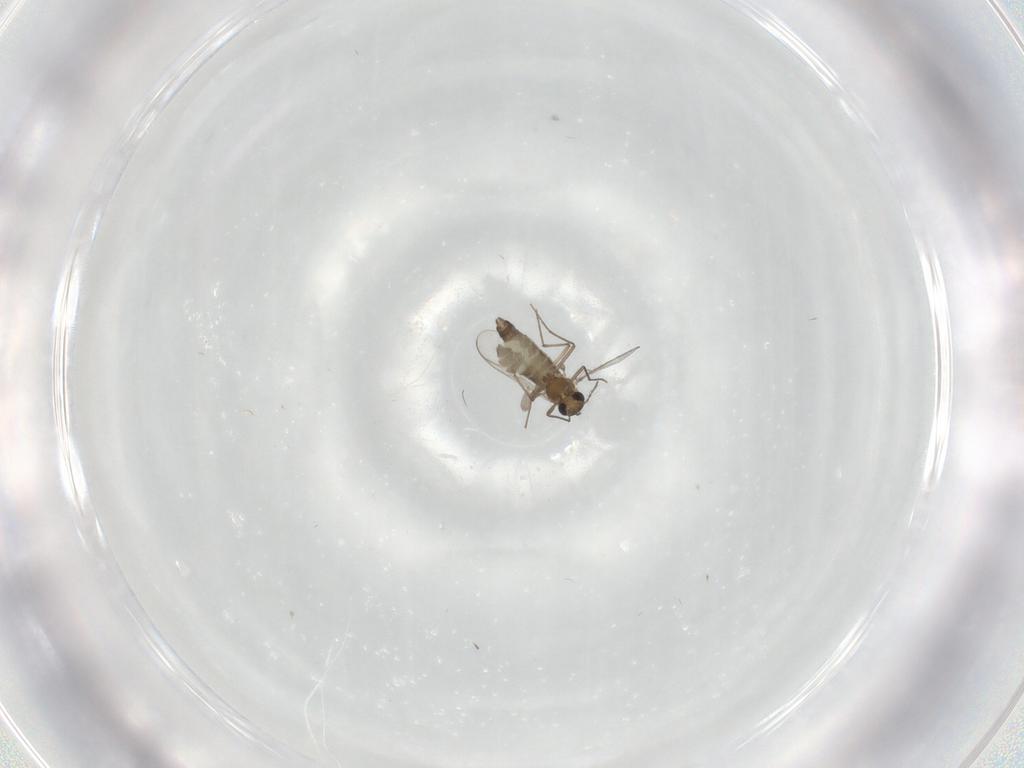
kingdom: Animalia
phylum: Arthropoda
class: Insecta
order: Diptera
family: Chironomidae
